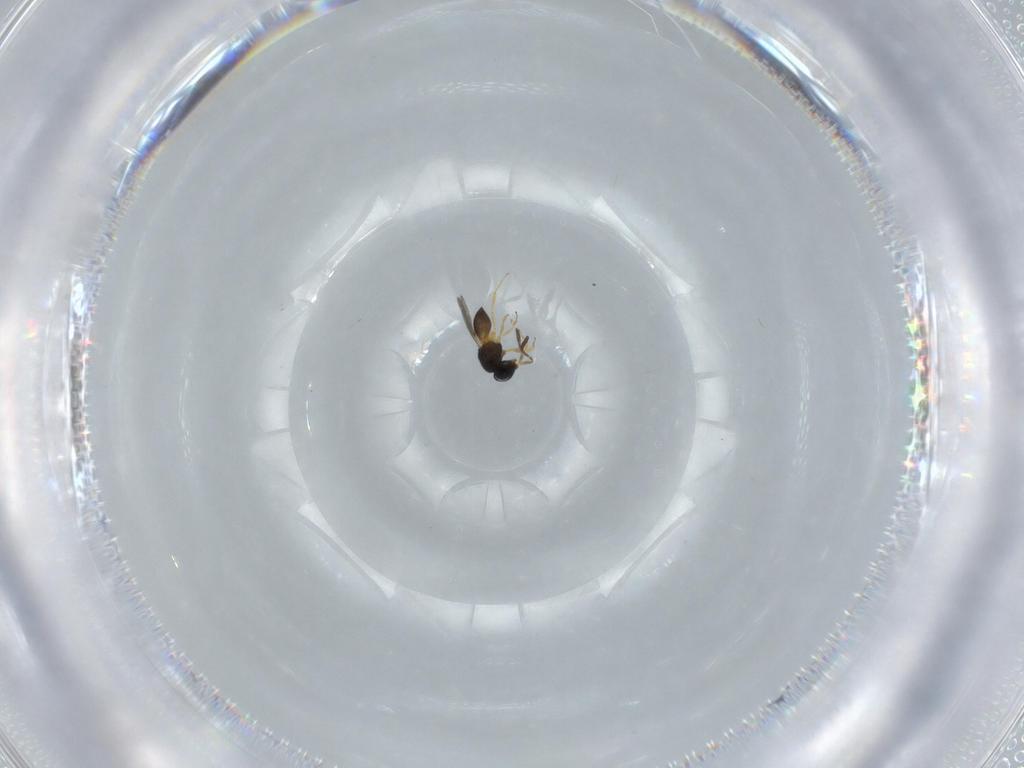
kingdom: Animalia
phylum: Arthropoda
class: Insecta
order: Hymenoptera
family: Scelionidae
